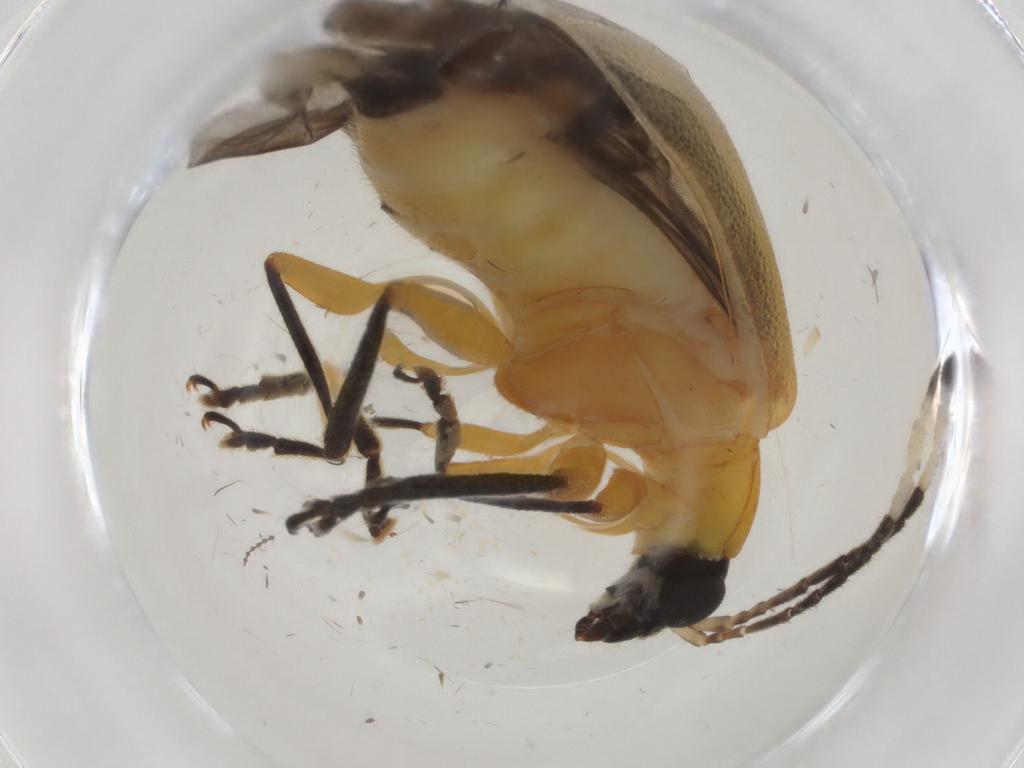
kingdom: Animalia
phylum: Arthropoda
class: Insecta
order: Coleoptera
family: Chrysomelidae
